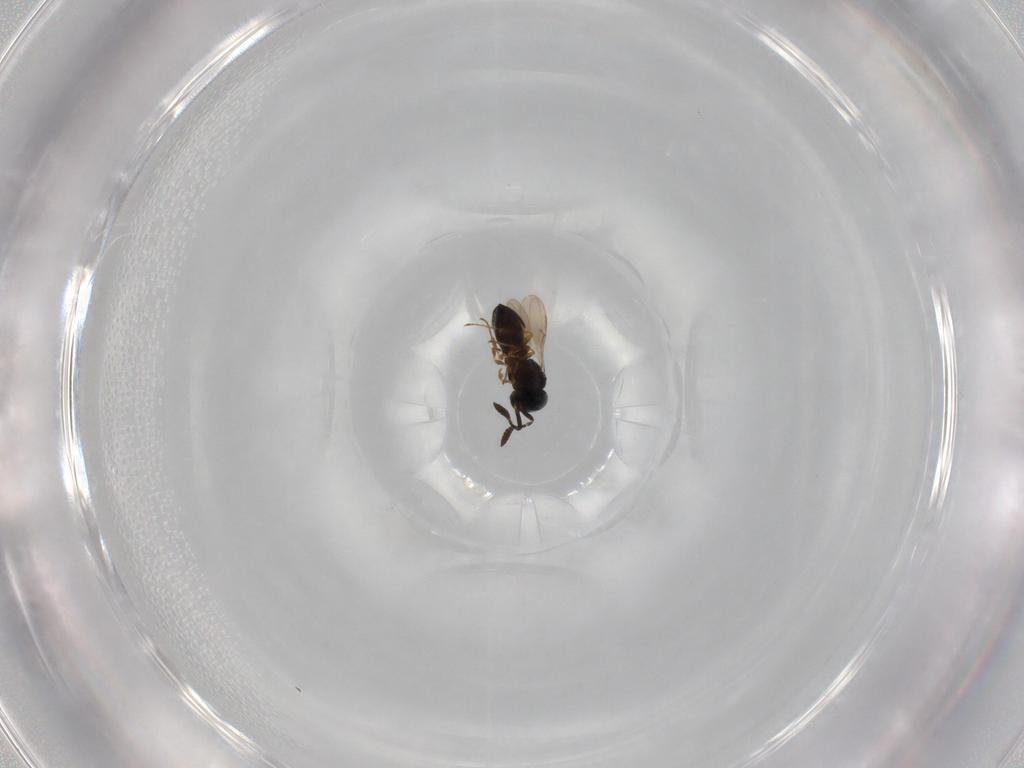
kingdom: Animalia
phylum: Arthropoda
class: Insecta
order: Hymenoptera
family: Scelionidae
